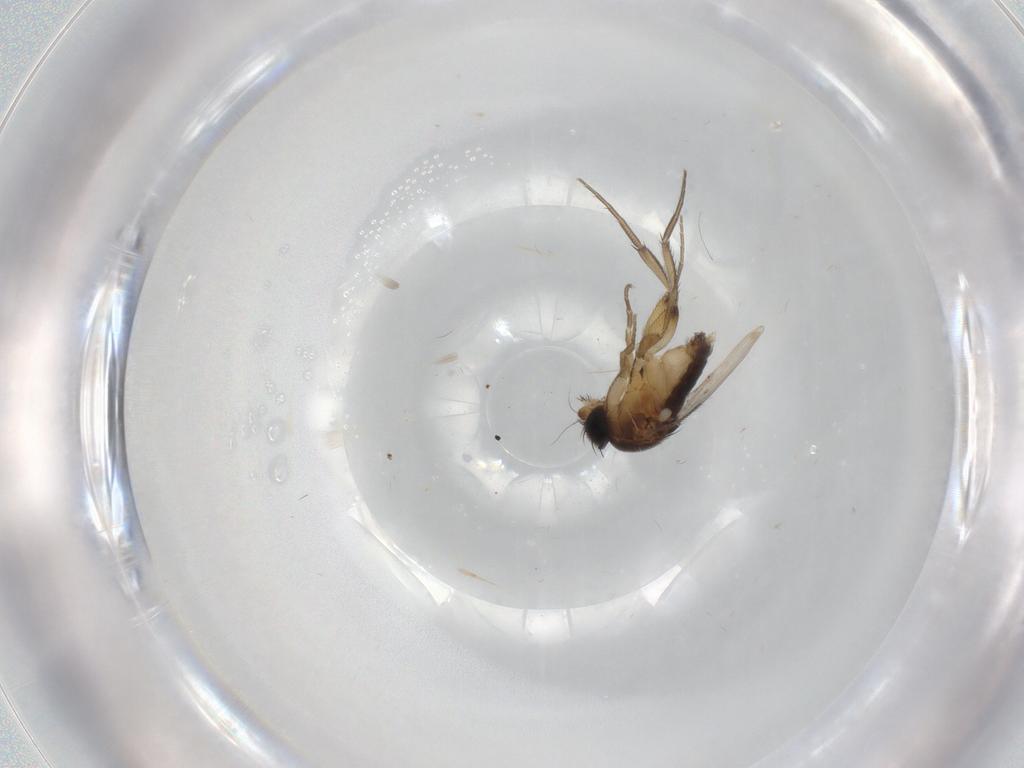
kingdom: Animalia
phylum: Arthropoda
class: Insecta
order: Diptera
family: Phoridae
